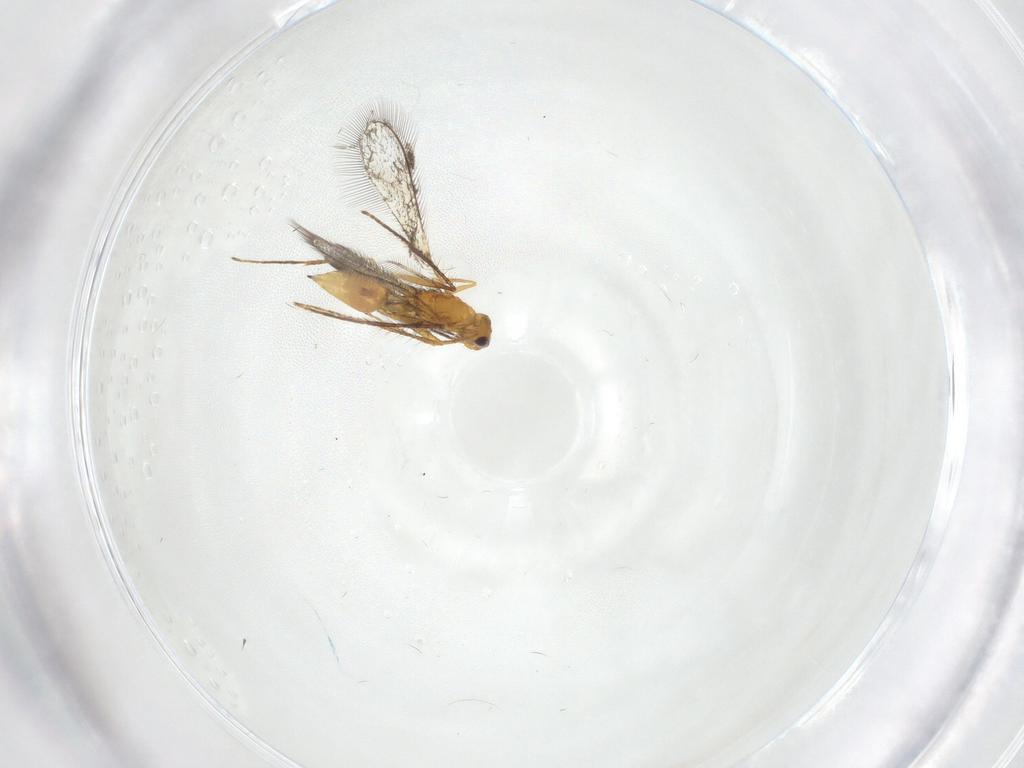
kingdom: Animalia
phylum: Arthropoda
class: Insecta
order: Hymenoptera
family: Mymaridae
